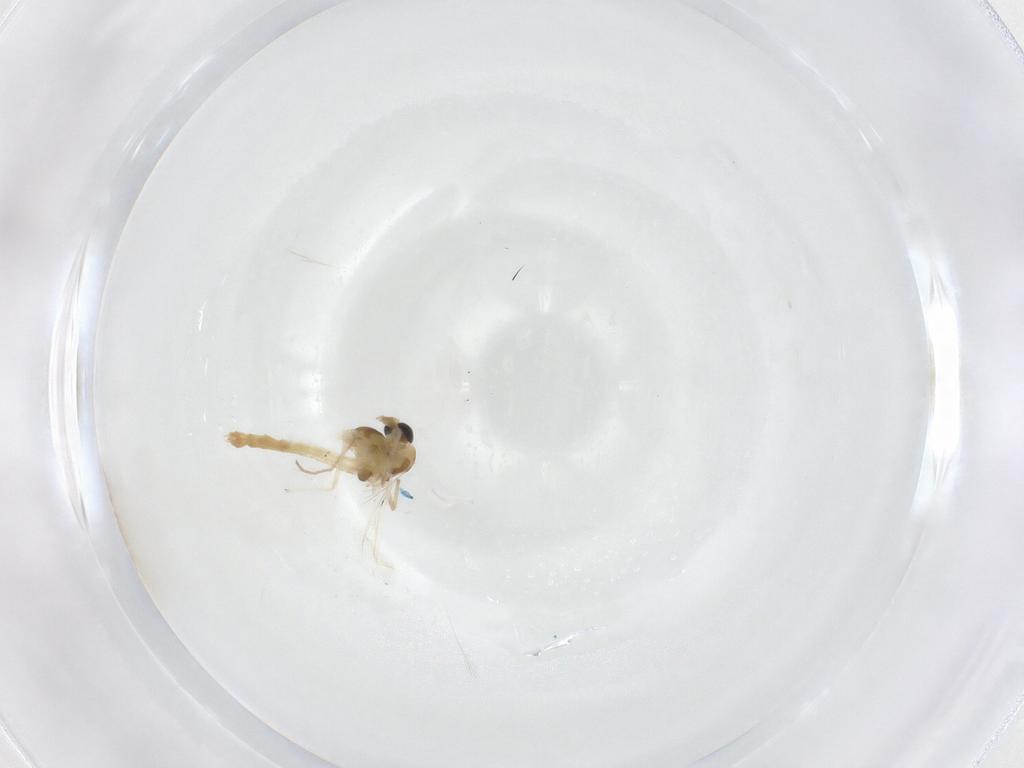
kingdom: Animalia
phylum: Arthropoda
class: Insecta
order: Diptera
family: Chironomidae
